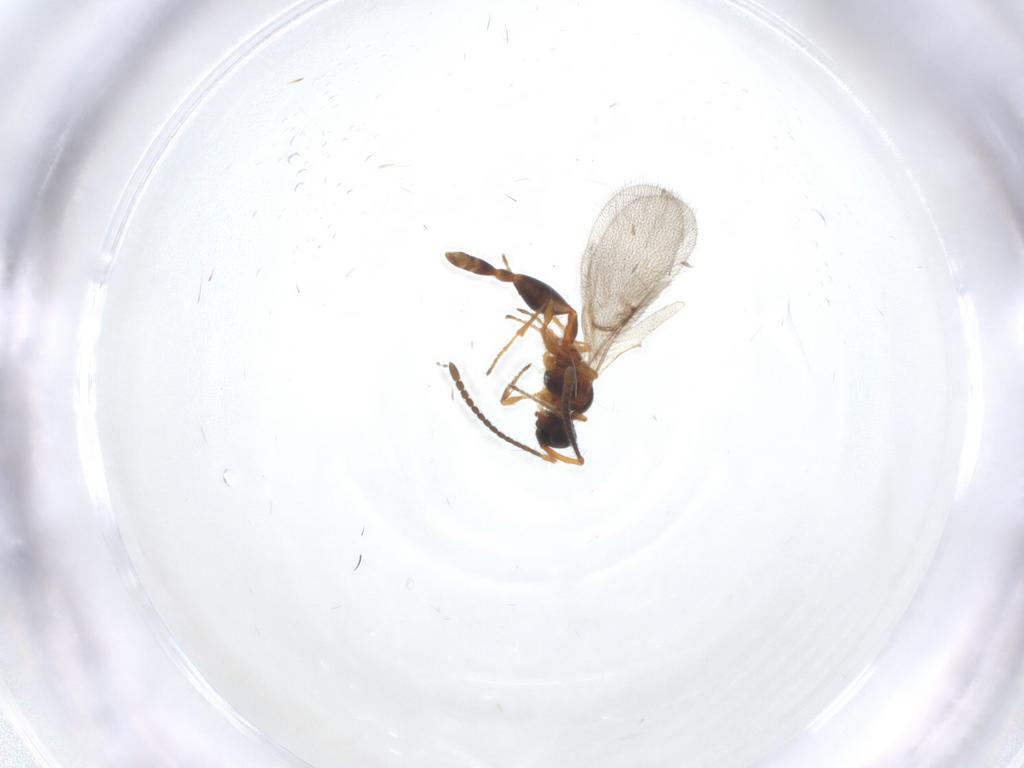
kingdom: Animalia
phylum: Arthropoda
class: Insecta
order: Hymenoptera
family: Diapriidae
